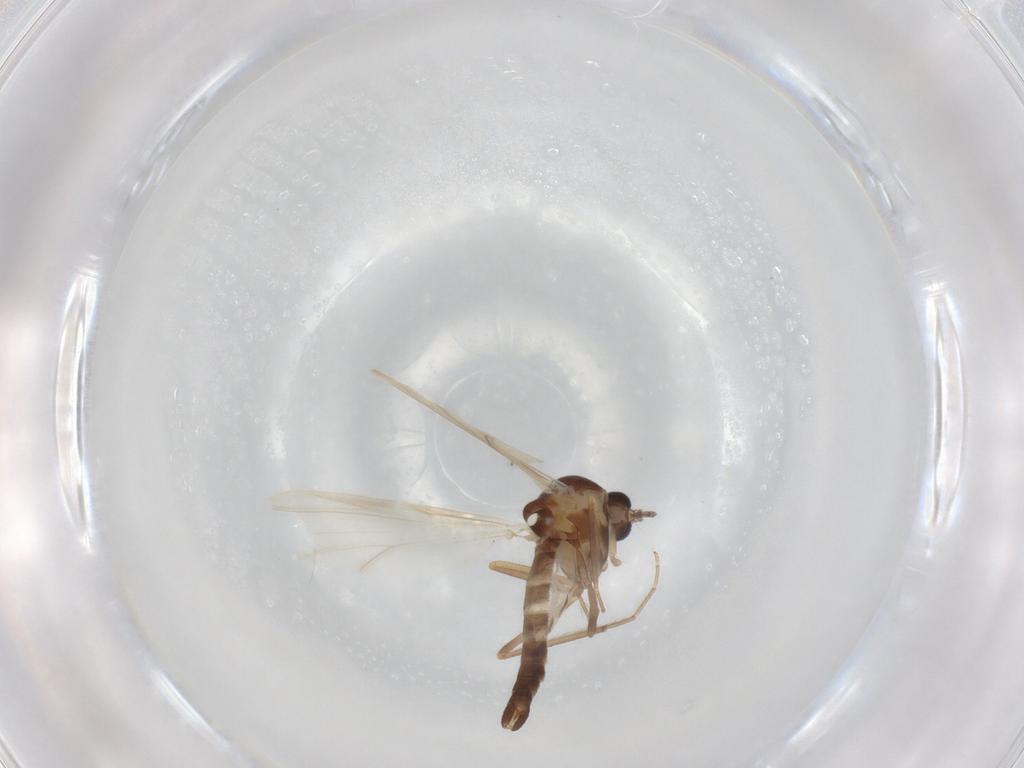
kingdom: Animalia
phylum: Arthropoda
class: Insecta
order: Diptera
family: Ceratopogonidae
